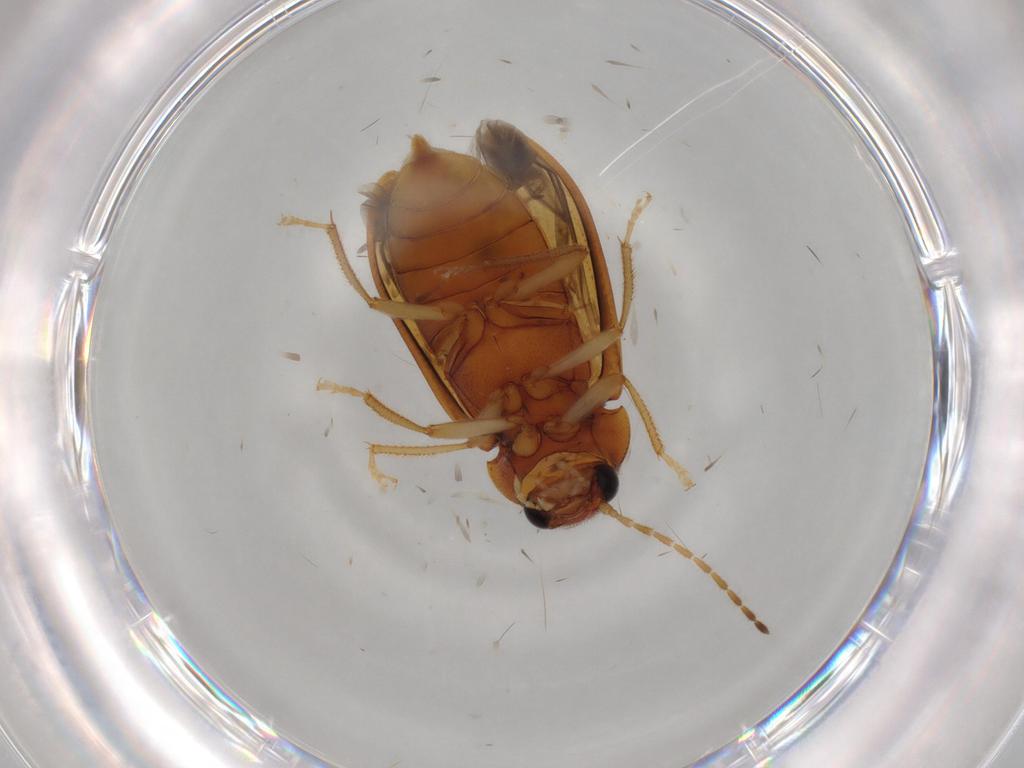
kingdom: Animalia
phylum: Arthropoda
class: Insecta
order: Coleoptera
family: Ptilodactylidae
